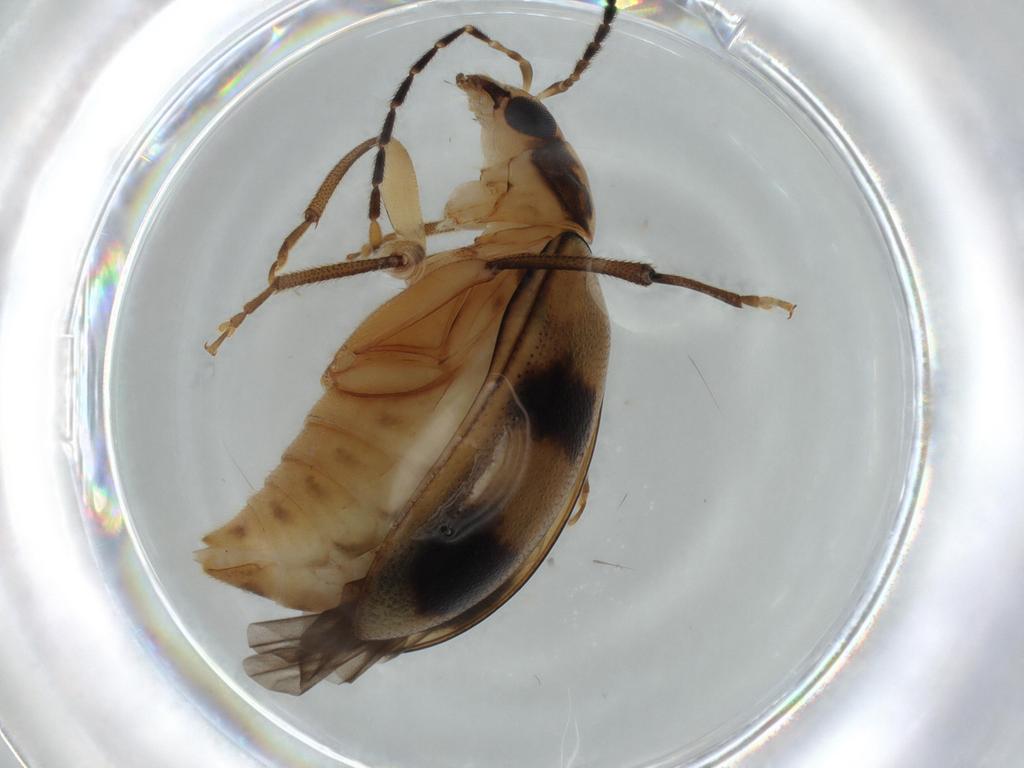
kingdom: Animalia
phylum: Arthropoda
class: Insecta
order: Coleoptera
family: Chrysomelidae
